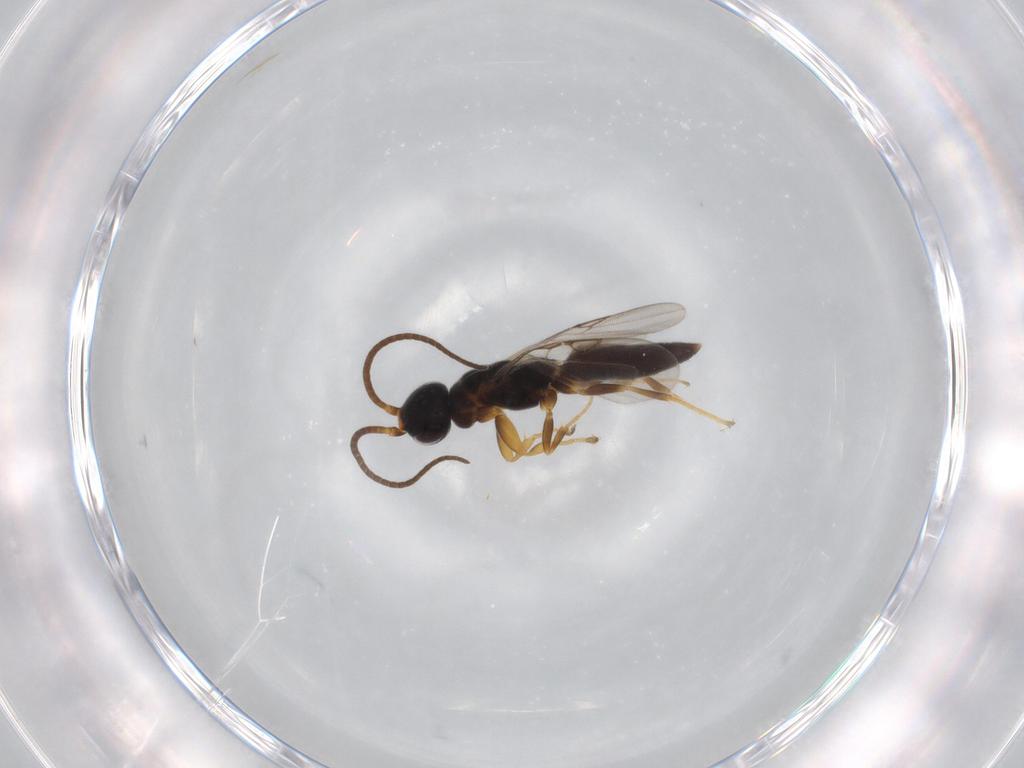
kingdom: Animalia
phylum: Arthropoda
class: Insecta
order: Hymenoptera
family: Sclerogibbidae
